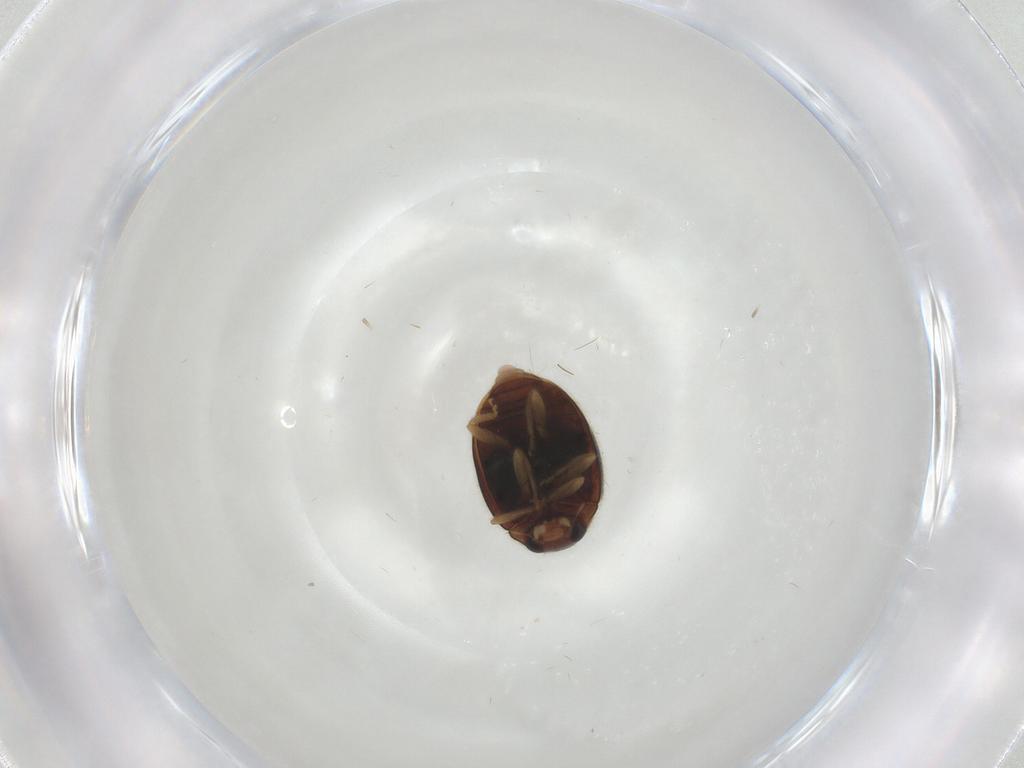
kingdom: Animalia
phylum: Arthropoda
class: Insecta
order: Coleoptera
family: Coccinellidae
